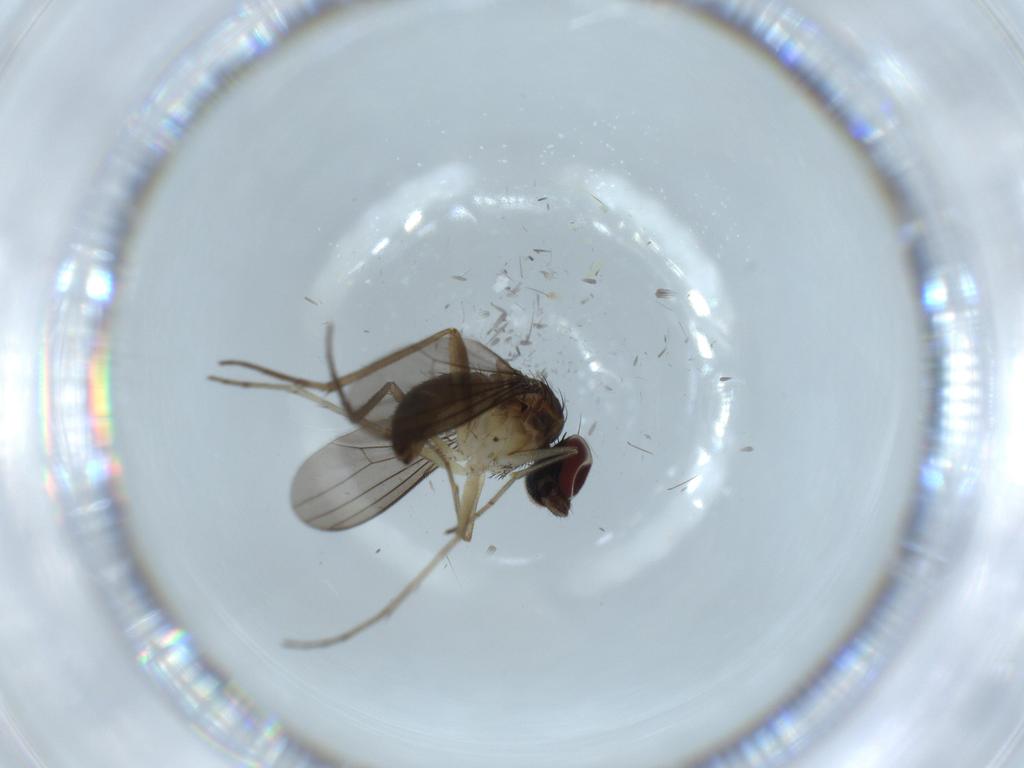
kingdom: Animalia
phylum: Arthropoda
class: Insecta
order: Diptera
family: Dolichopodidae
